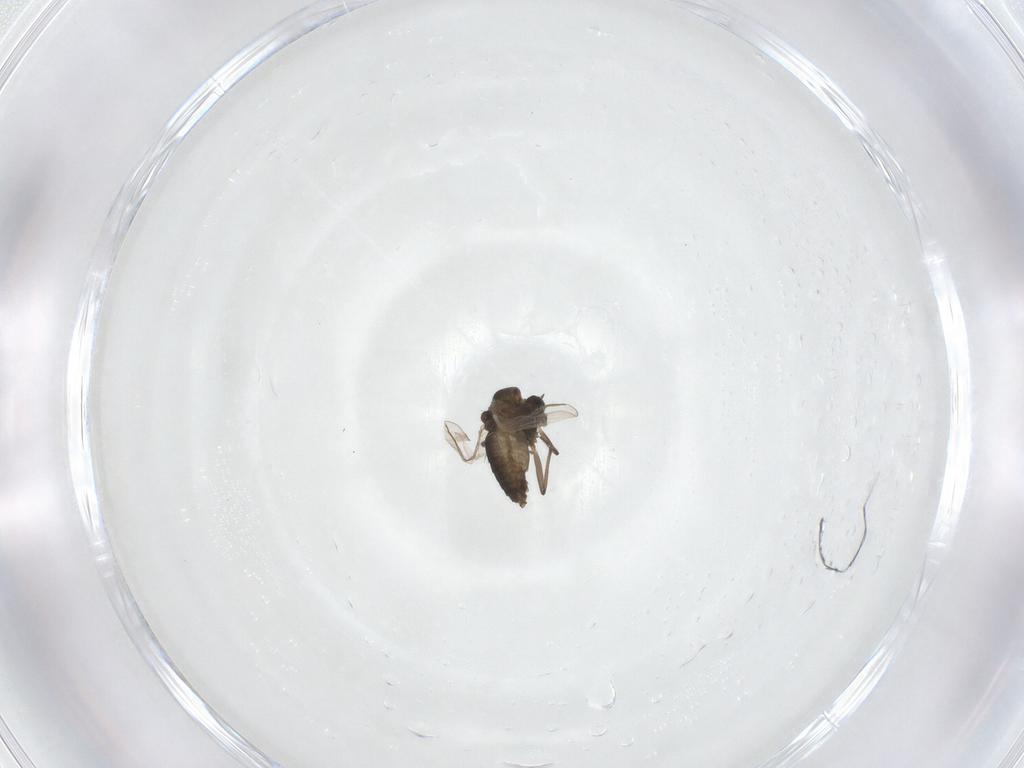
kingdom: Animalia
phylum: Arthropoda
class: Insecta
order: Diptera
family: Chironomidae
